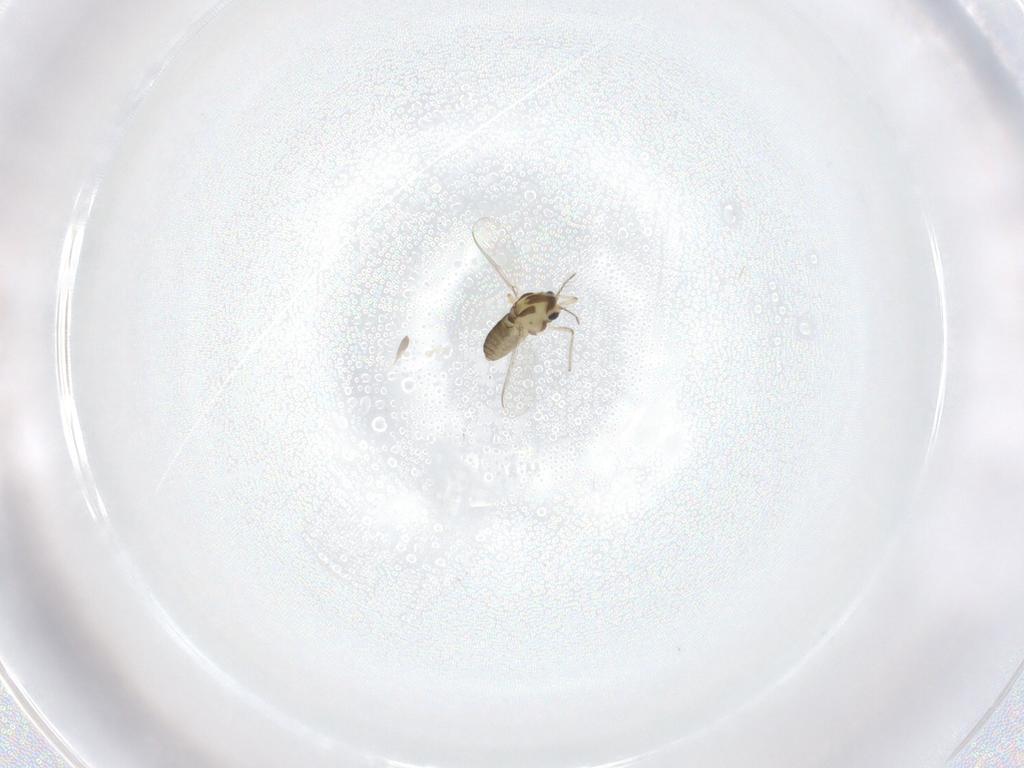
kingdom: Animalia
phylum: Arthropoda
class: Insecta
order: Diptera
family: Chironomidae
